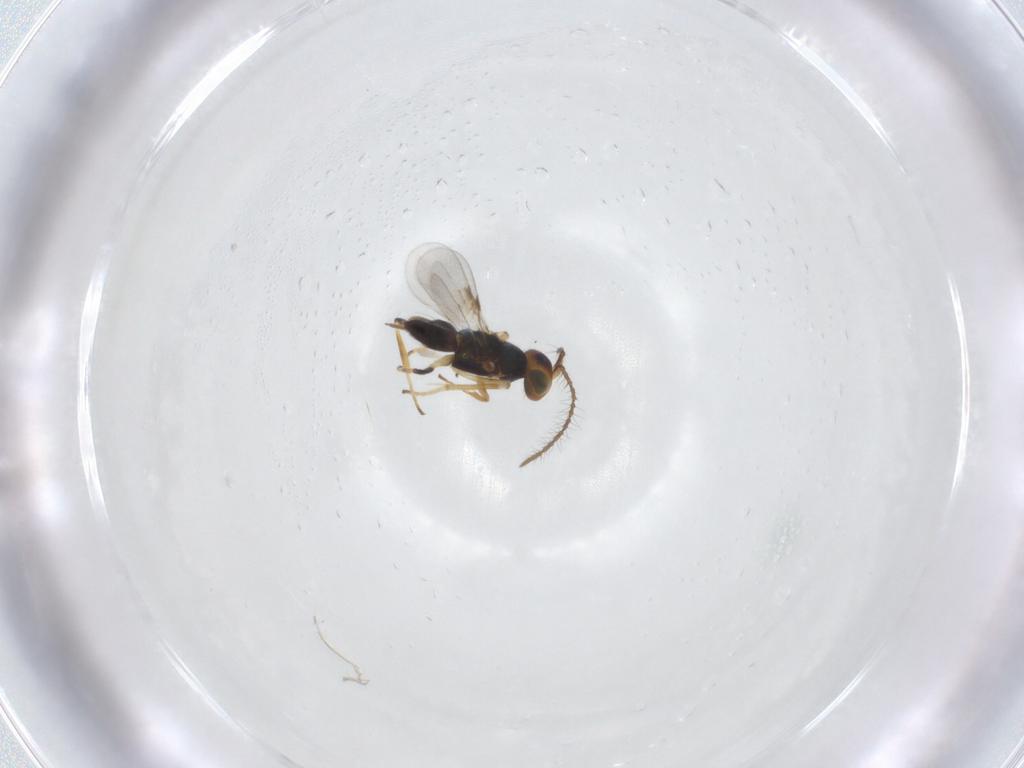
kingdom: Animalia
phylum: Arthropoda
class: Insecta
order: Hymenoptera
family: Encyrtidae
